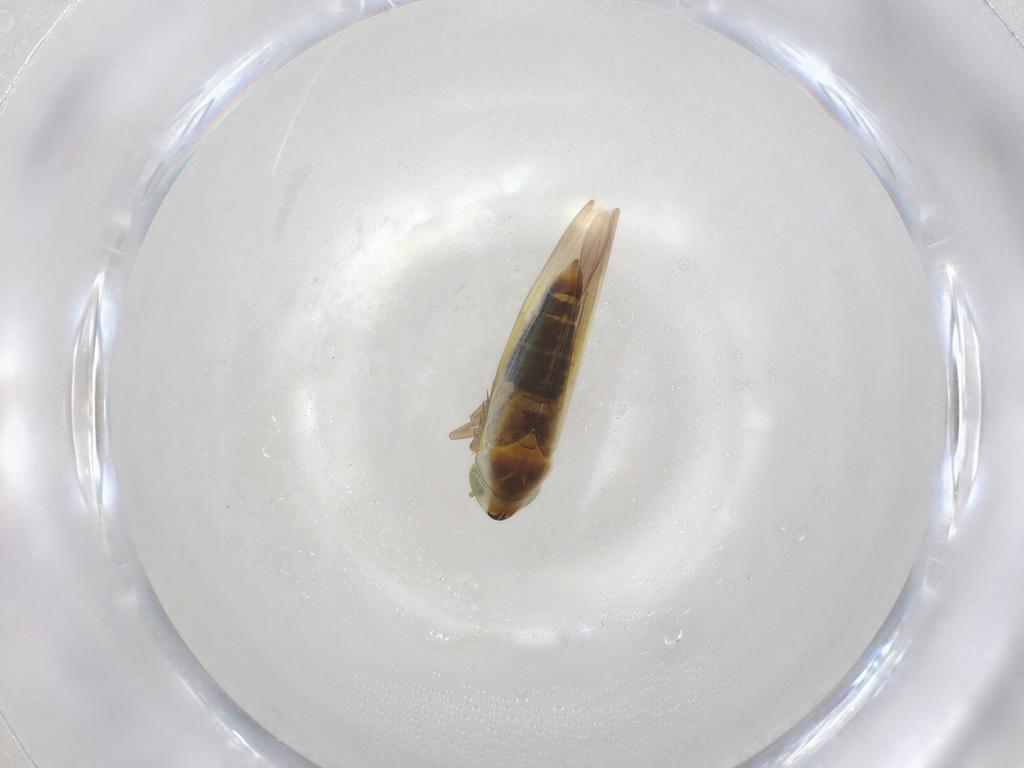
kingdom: Animalia
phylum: Arthropoda
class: Insecta
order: Hemiptera
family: Cicadellidae
